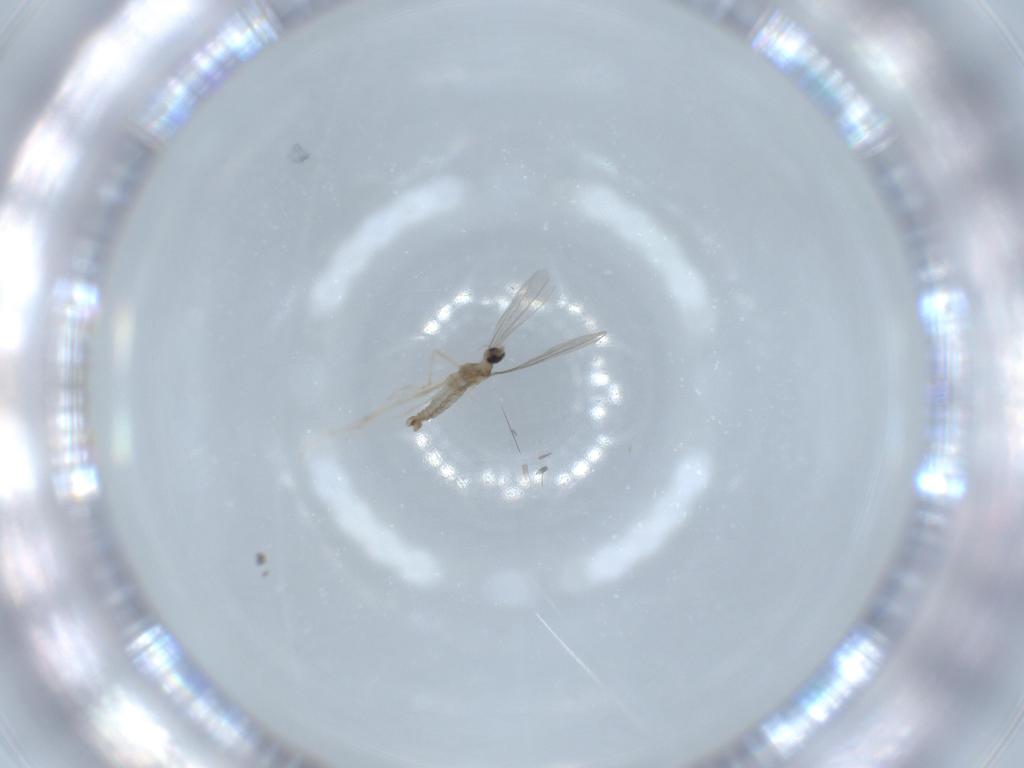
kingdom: Animalia
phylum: Arthropoda
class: Insecta
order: Diptera
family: Cecidomyiidae
